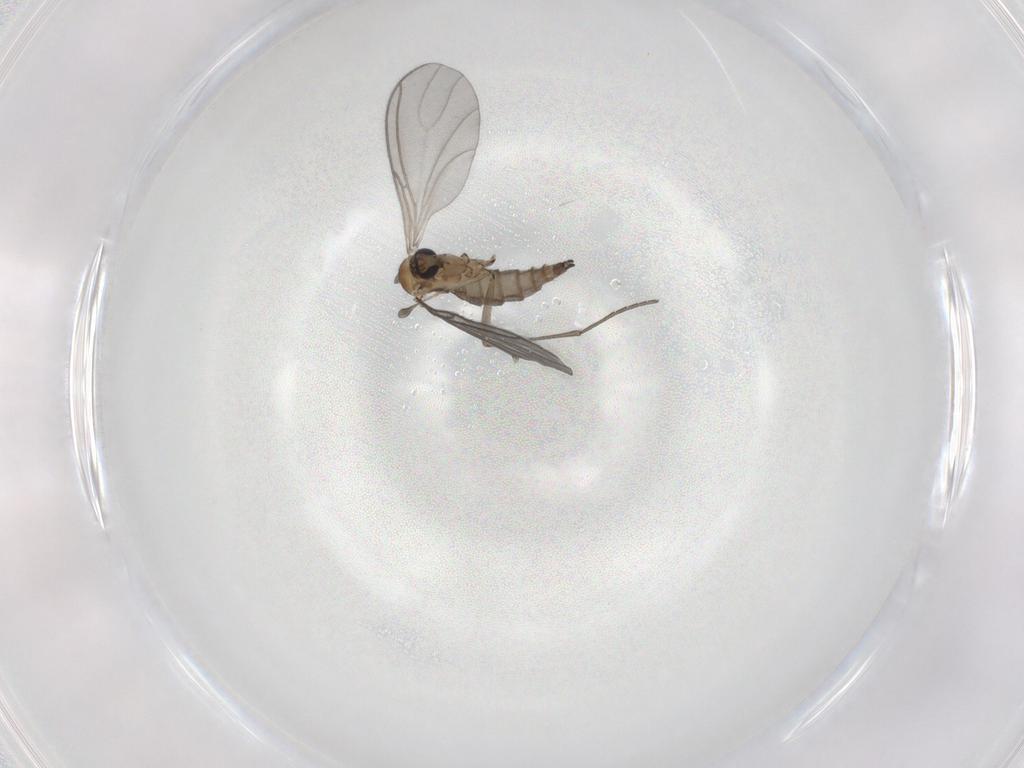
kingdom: Animalia
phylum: Arthropoda
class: Insecta
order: Diptera
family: Sciaridae
